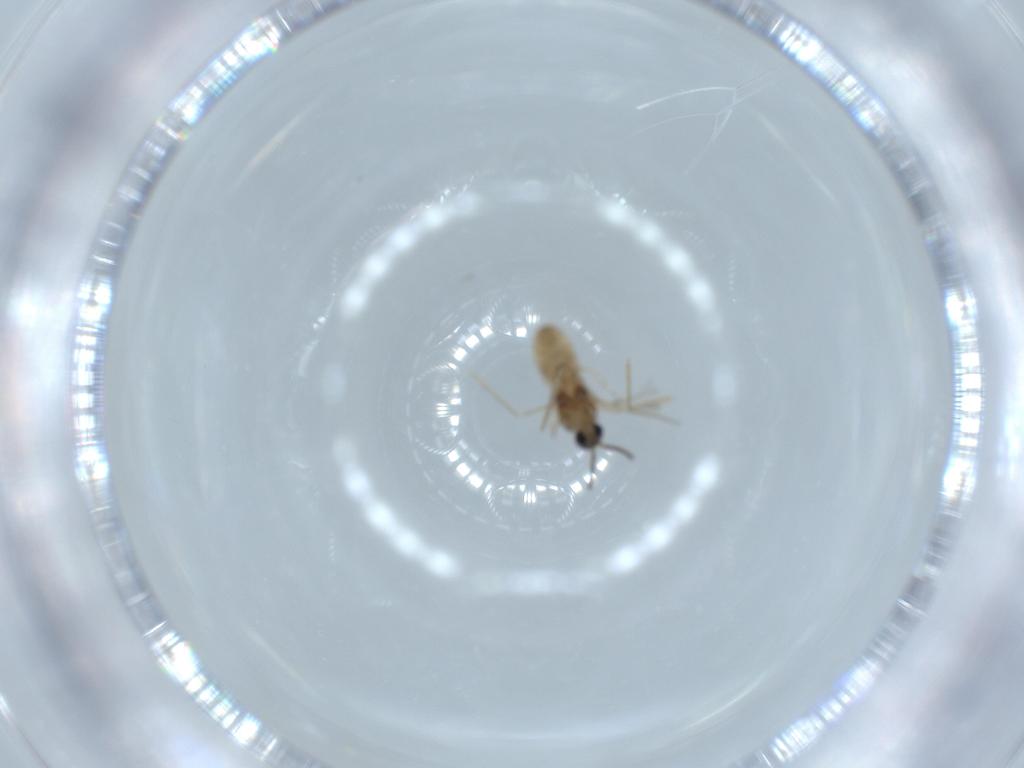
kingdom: Animalia
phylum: Arthropoda
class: Insecta
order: Diptera
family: Cecidomyiidae
